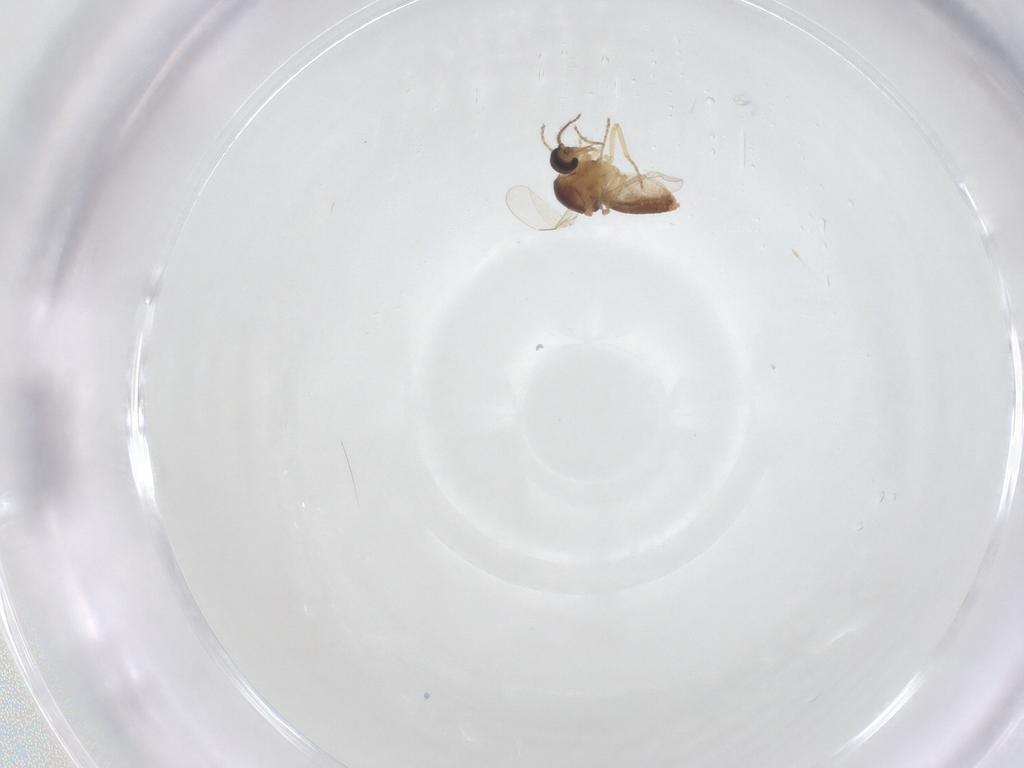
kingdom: Animalia
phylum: Arthropoda
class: Insecta
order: Diptera
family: Ceratopogonidae
